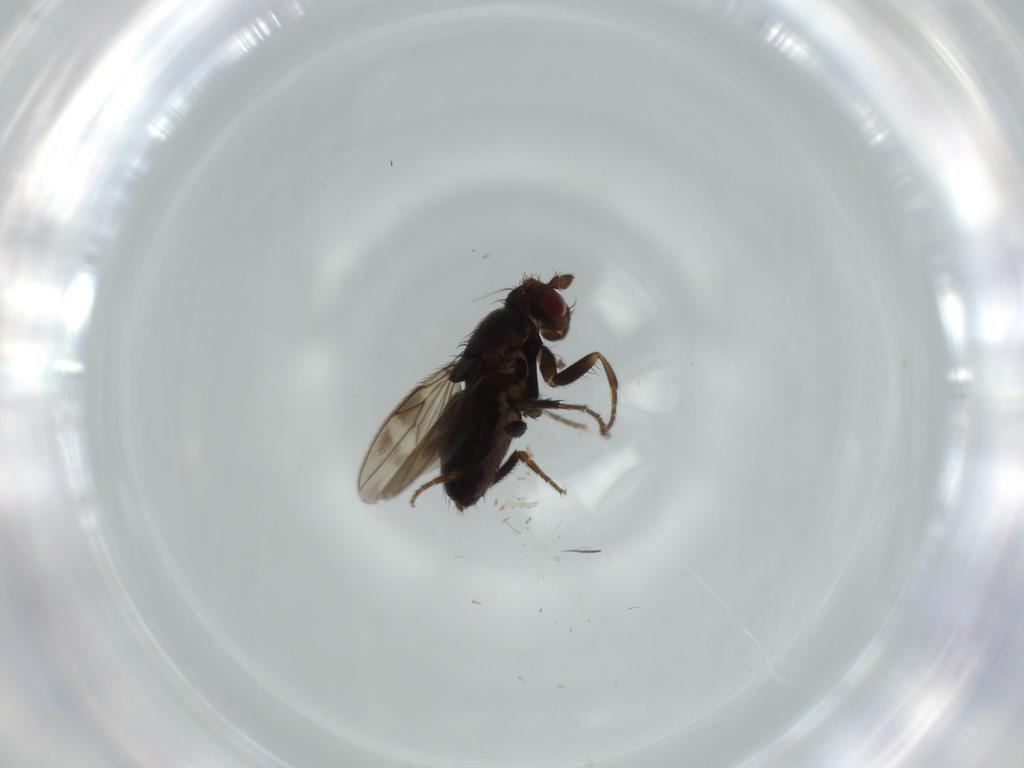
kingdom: Animalia
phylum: Arthropoda
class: Insecta
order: Diptera
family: Sphaeroceridae
